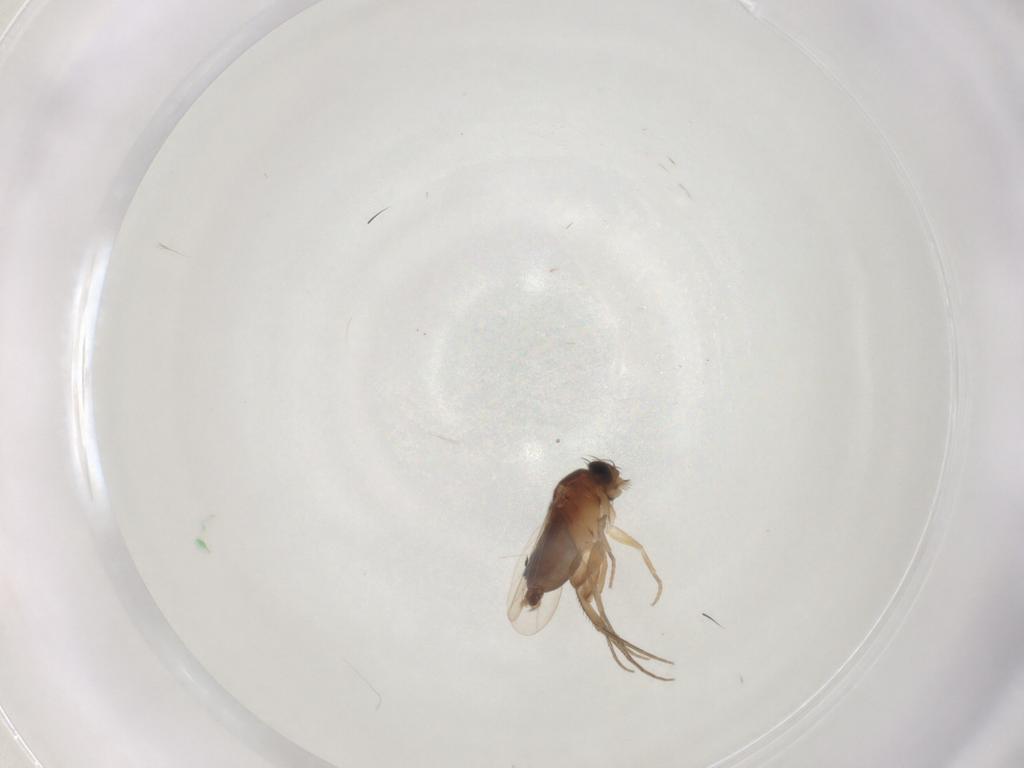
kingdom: Animalia
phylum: Arthropoda
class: Insecta
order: Diptera
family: Phoridae
